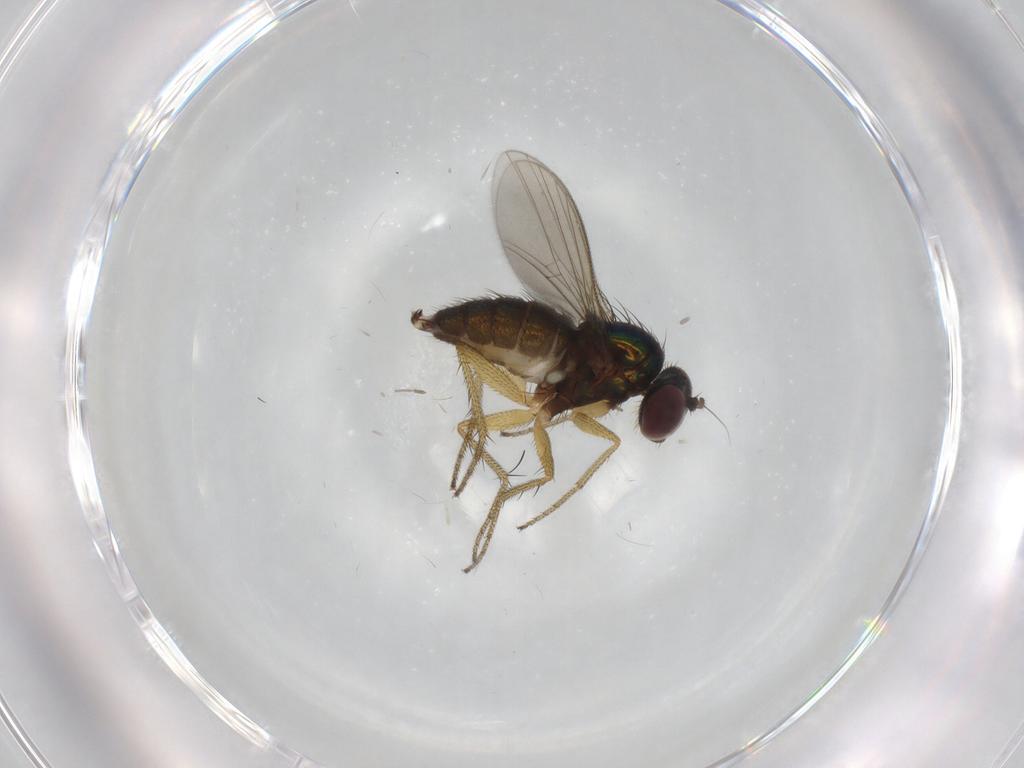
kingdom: Animalia
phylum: Arthropoda
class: Insecta
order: Diptera
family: Chironomidae
